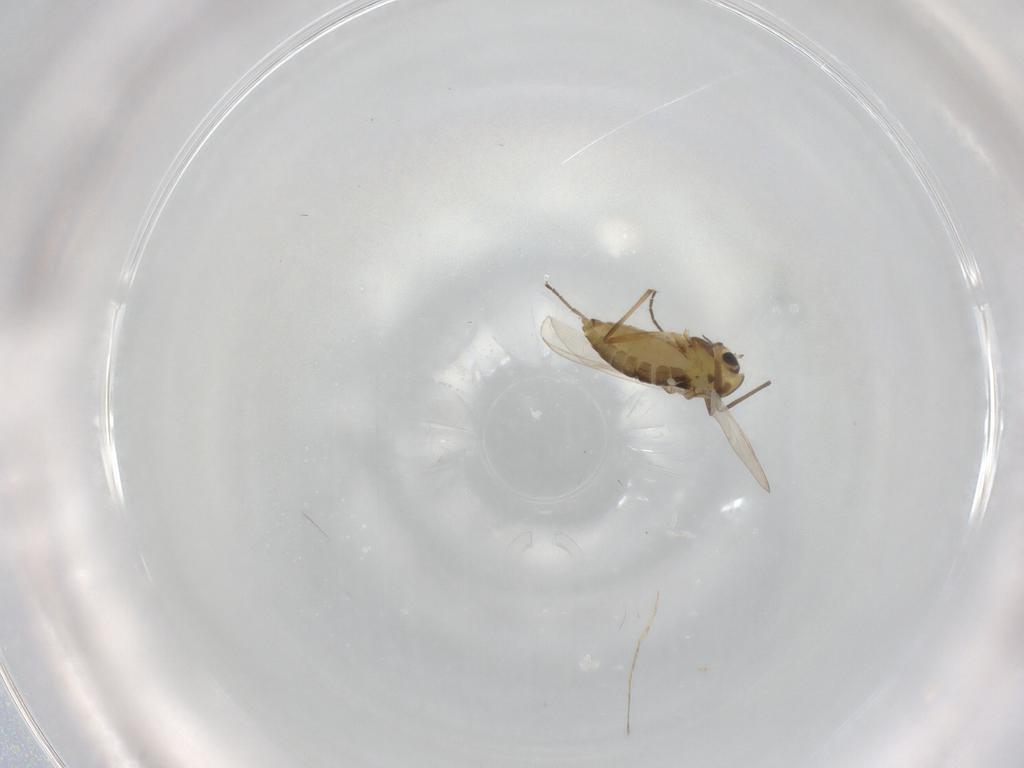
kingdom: Animalia
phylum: Arthropoda
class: Insecta
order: Diptera
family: Chironomidae
